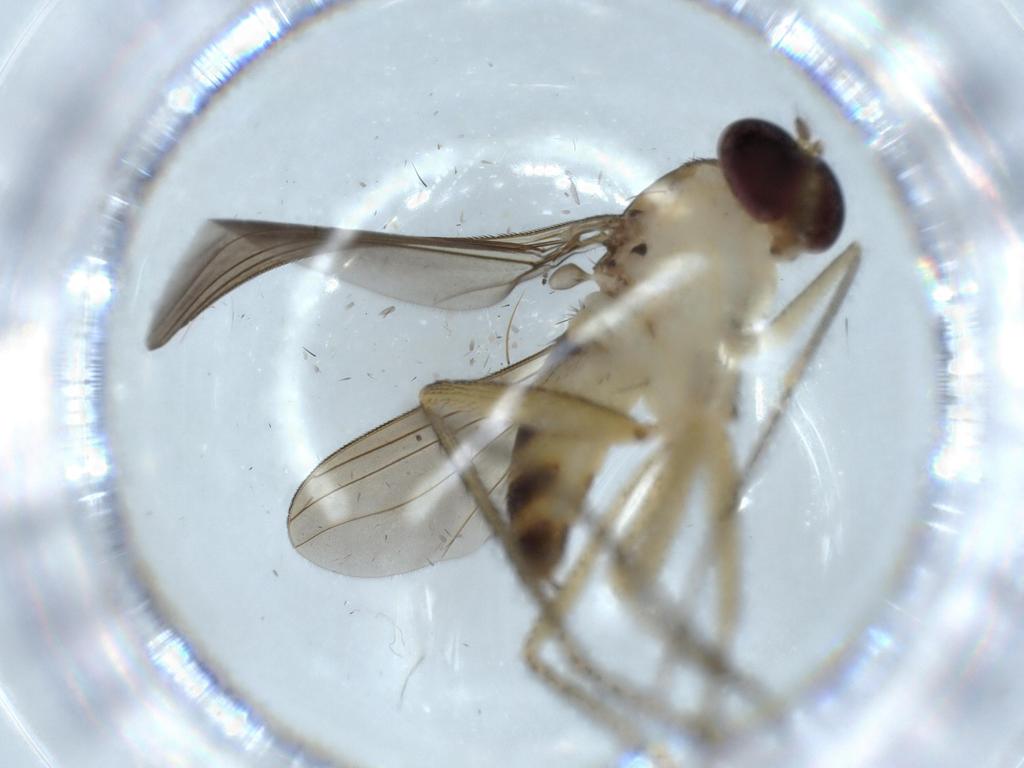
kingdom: Animalia
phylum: Arthropoda
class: Insecta
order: Diptera
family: Dolichopodidae
